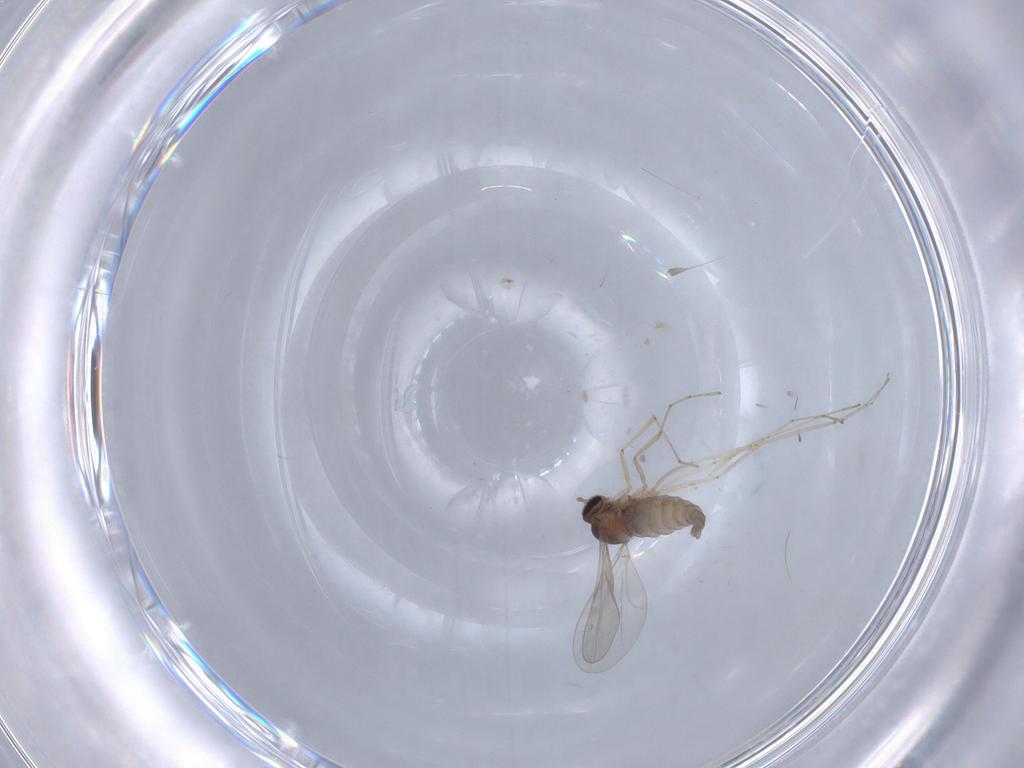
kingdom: Animalia
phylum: Arthropoda
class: Insecta
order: Diptera
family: Cecidomyiidae
